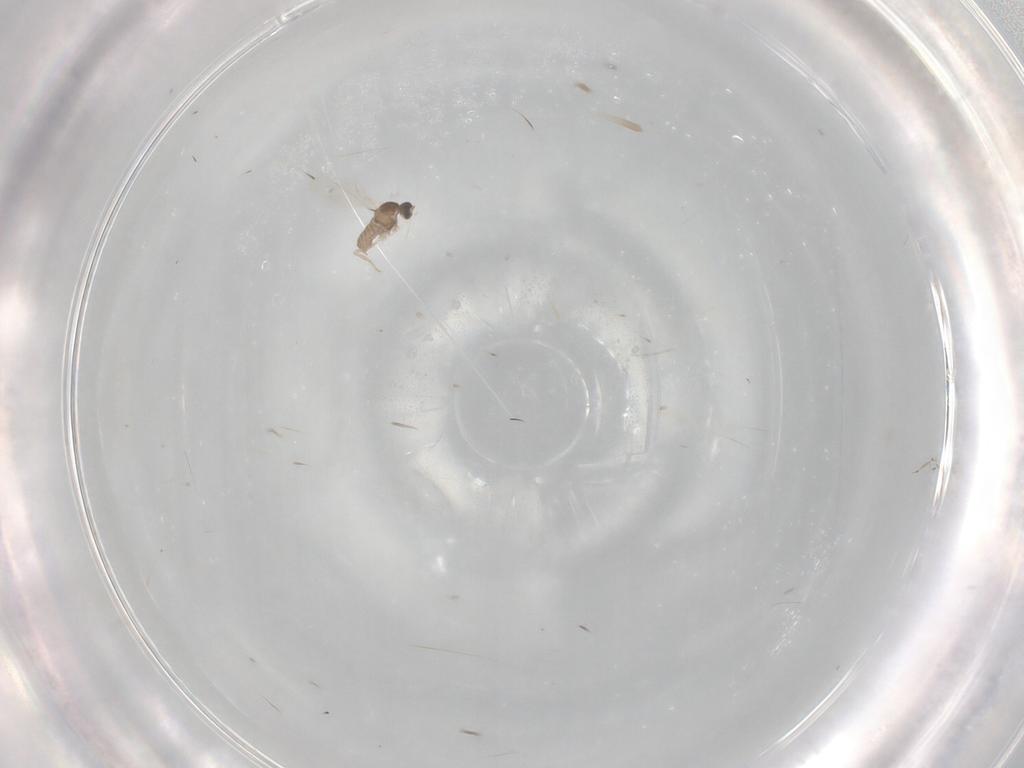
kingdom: Animalia
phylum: Arthropoda
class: Insecta
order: Diptera
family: Cecidomyiidae
